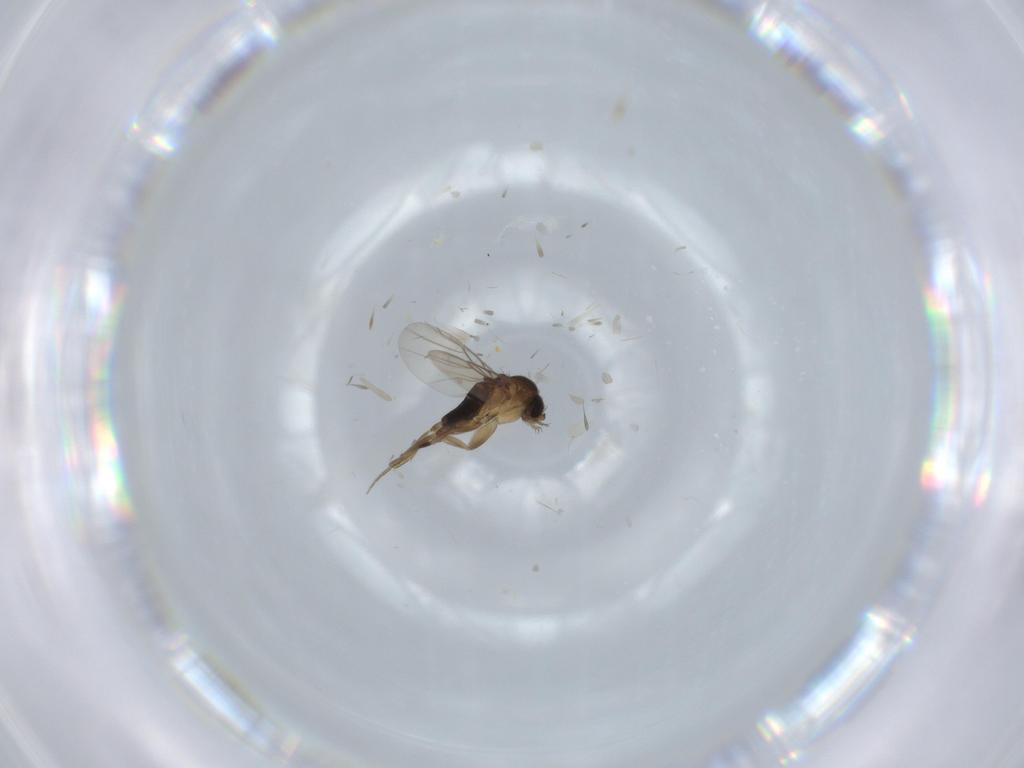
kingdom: Animalia
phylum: Arthropoda
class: Insecta
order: Diptera
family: Phoridae
